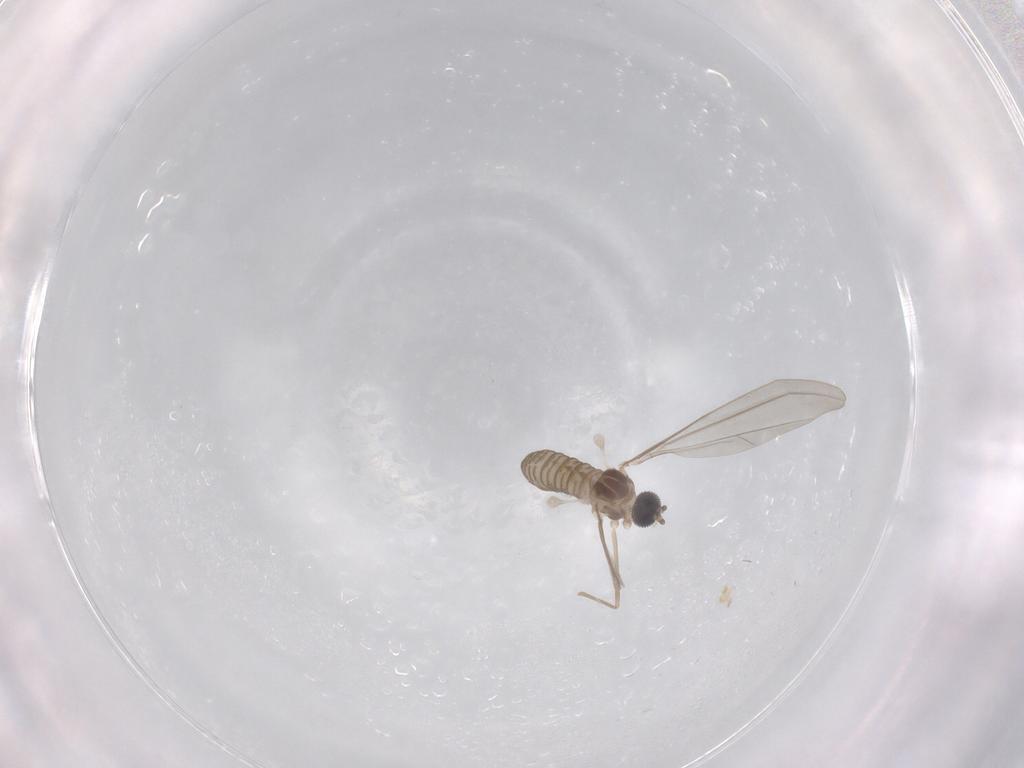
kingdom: Animalia
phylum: Arthropoda
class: Insecta
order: Diptera
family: Cecidomyiidae
